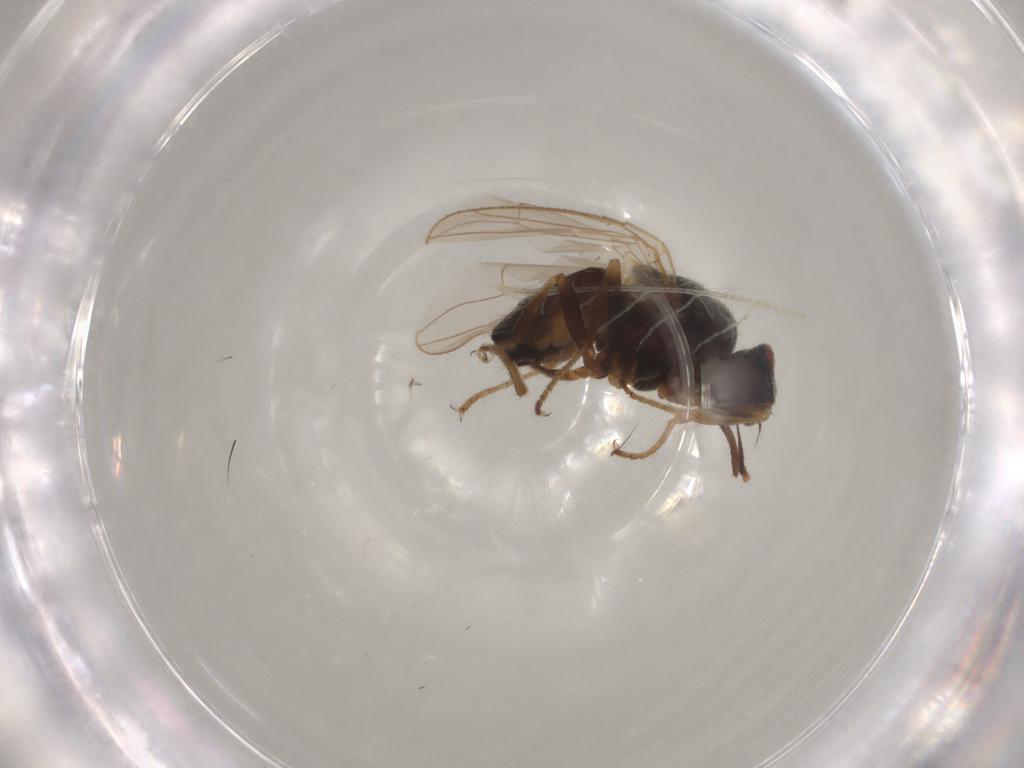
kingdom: Animalia
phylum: Arthropoda
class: Insecta
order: Diptera
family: Muscidae
